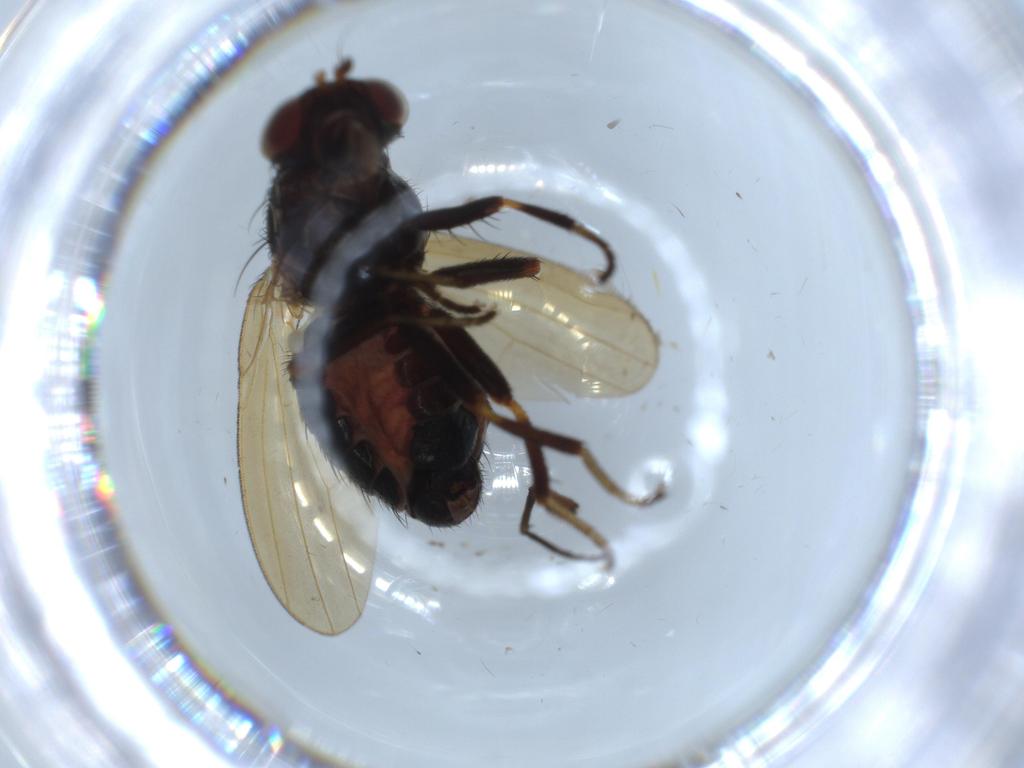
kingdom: Animalia
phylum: Arthropoda
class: Insecta
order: Diptera
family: Lauxaniidae
